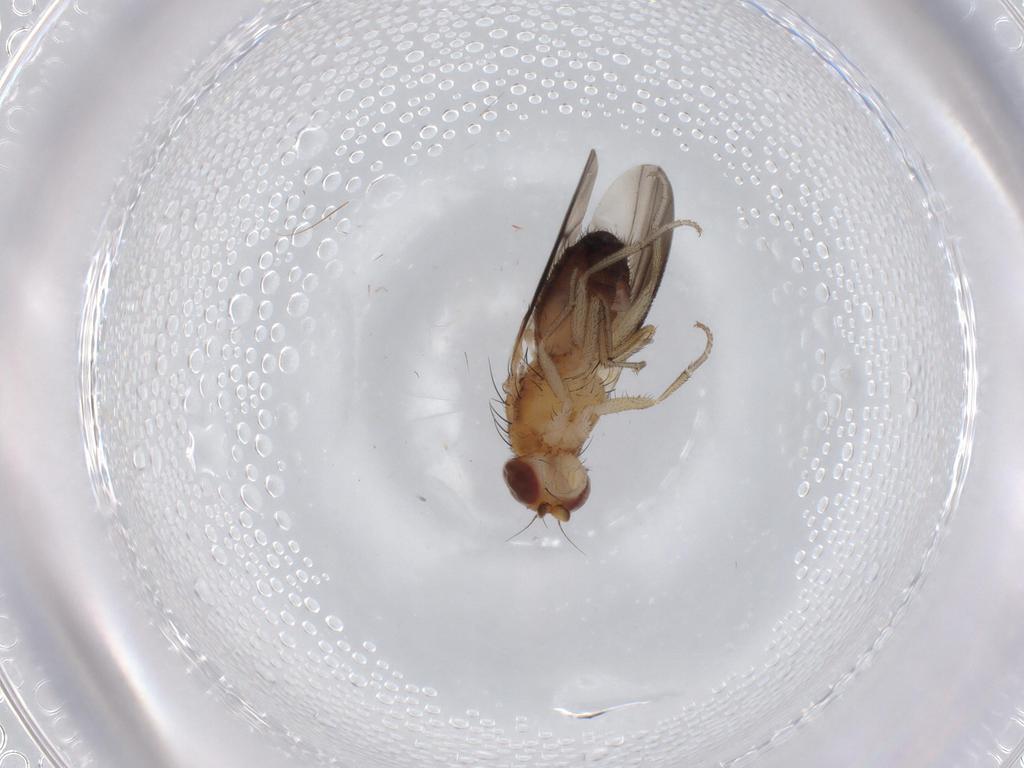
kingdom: Animalia
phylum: Arthropoda
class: Insecta
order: Diptera
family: Heleomyzidae
